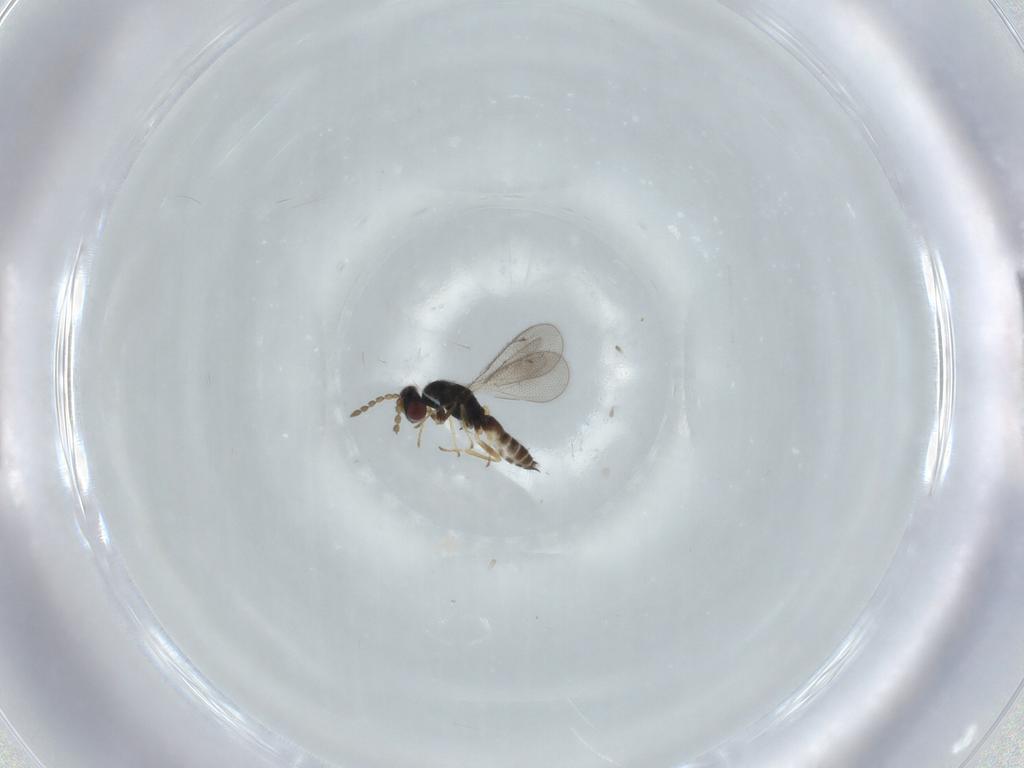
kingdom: Animalia
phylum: Arthropoda
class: Insecta
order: Hymenoptera
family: Eulophidae
